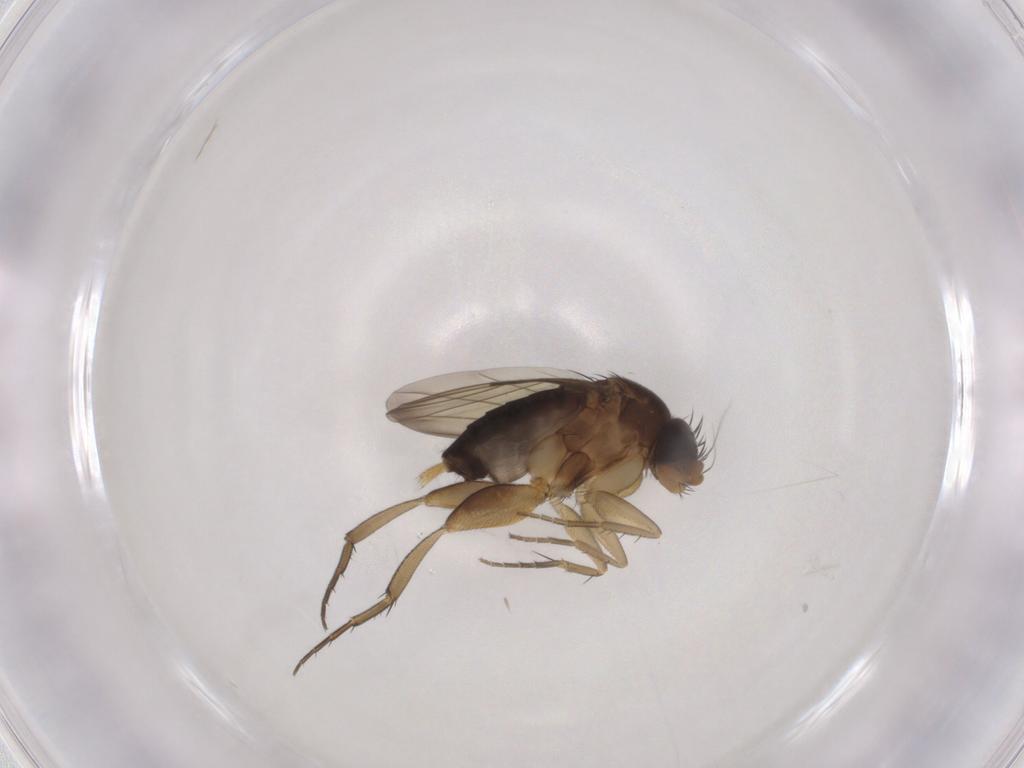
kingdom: Animalia
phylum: Arthropoda
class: Insecta
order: Diptera
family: Phoridae
